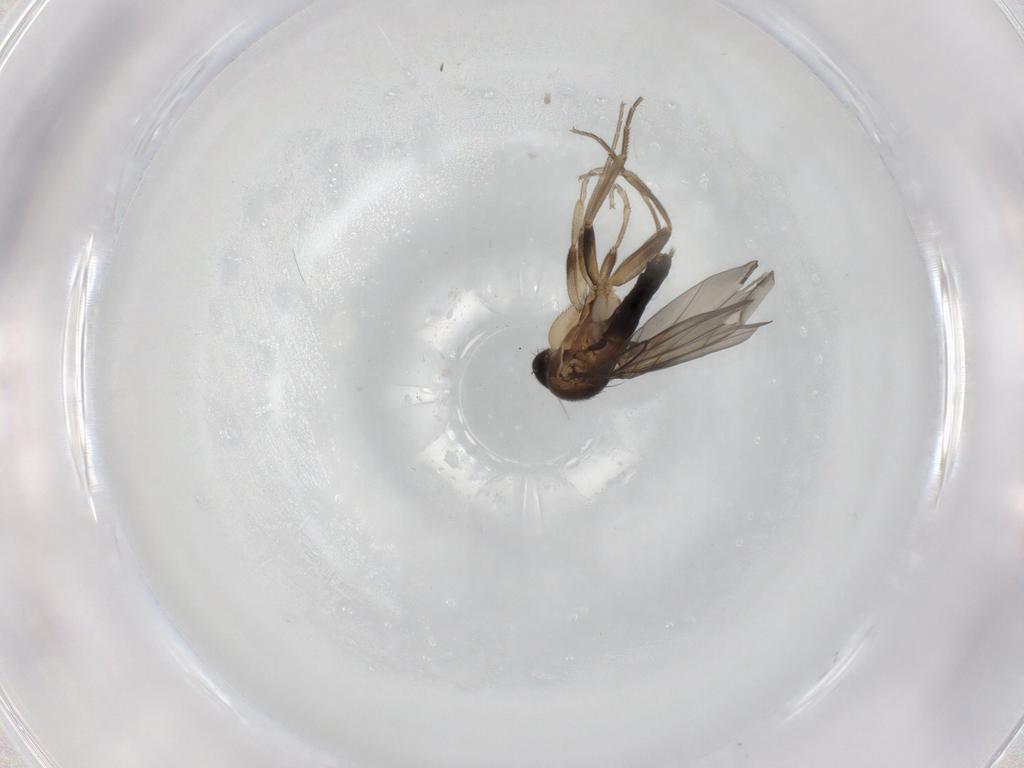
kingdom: Animalia
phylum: Arthropoda
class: Insecta
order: Diptera
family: Phoridae
